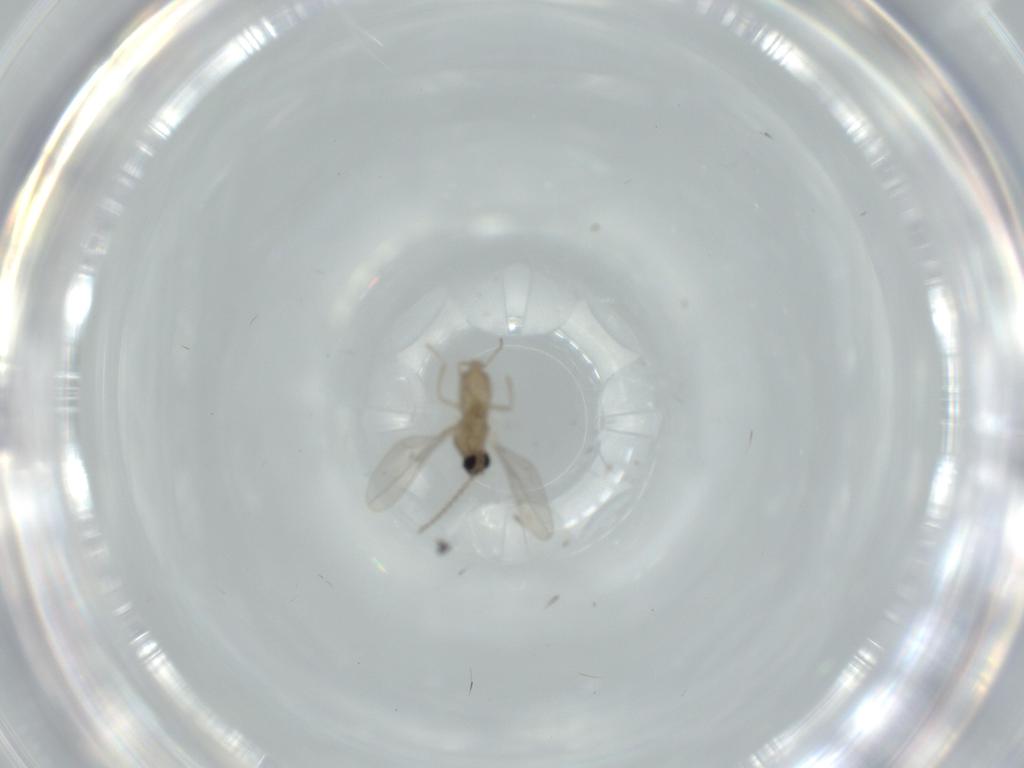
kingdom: Animalia
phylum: Arthropoda
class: Insecta
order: Diptera
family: Cecidomyiidae
